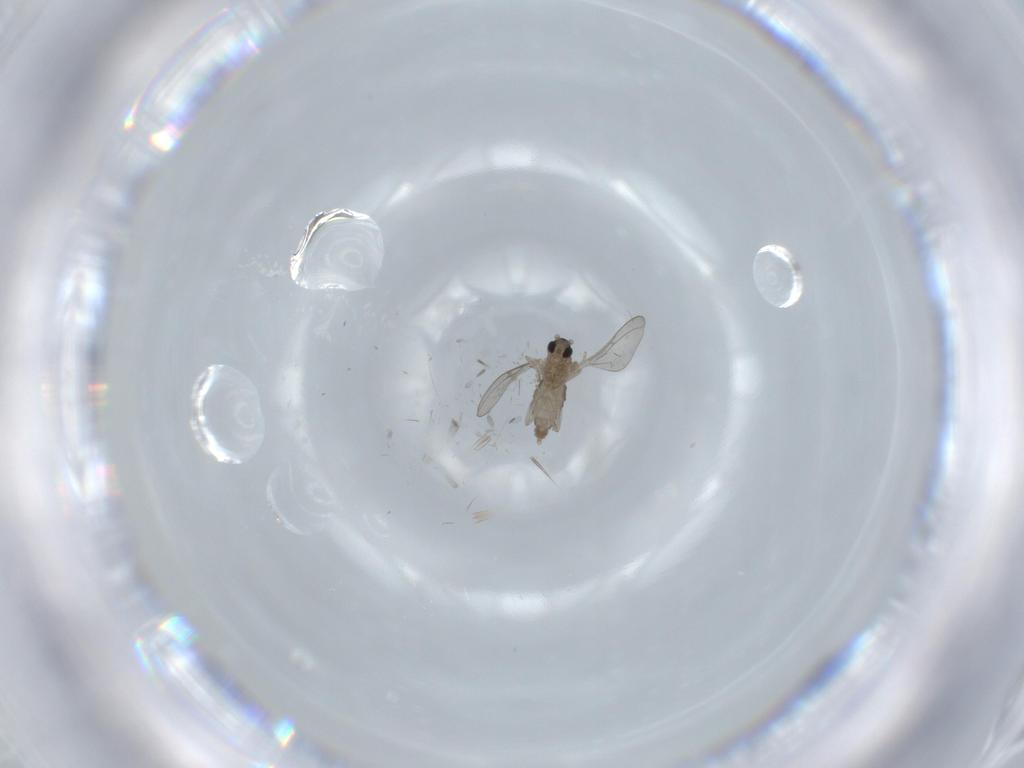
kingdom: Animalia
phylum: Arthropoda
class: Insecta
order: Diptera
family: Cecidomyiidae
